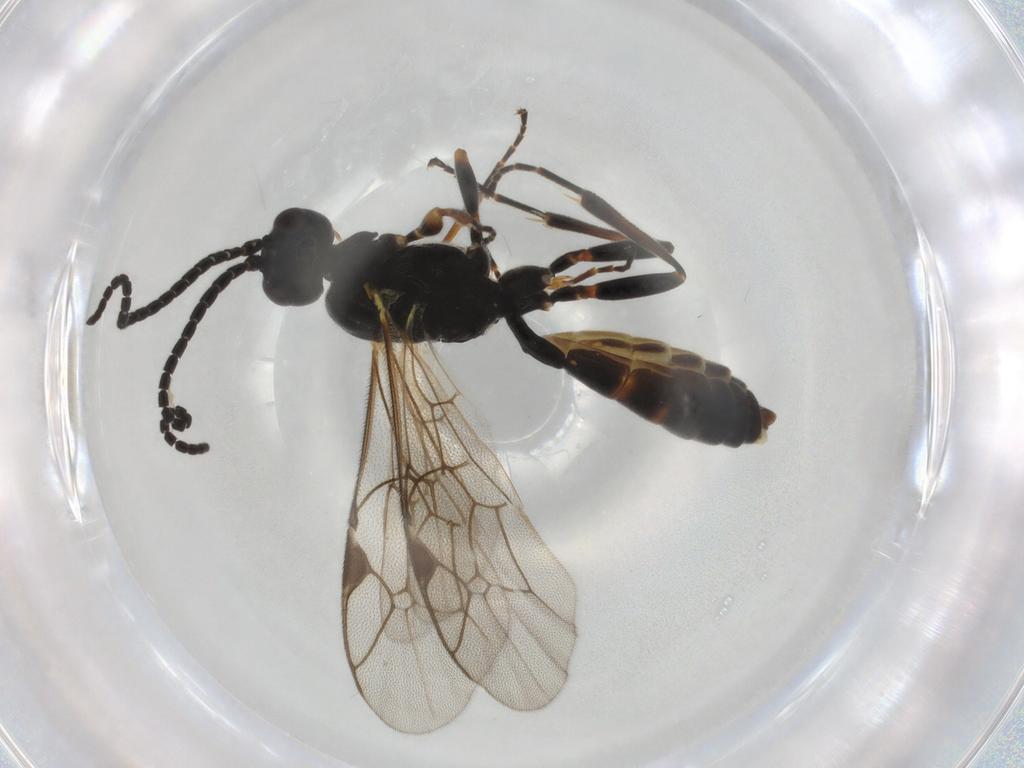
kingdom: Animalia
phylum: Arthropoda
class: Insecta
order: Hymenoptera
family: Ichneumonidae
